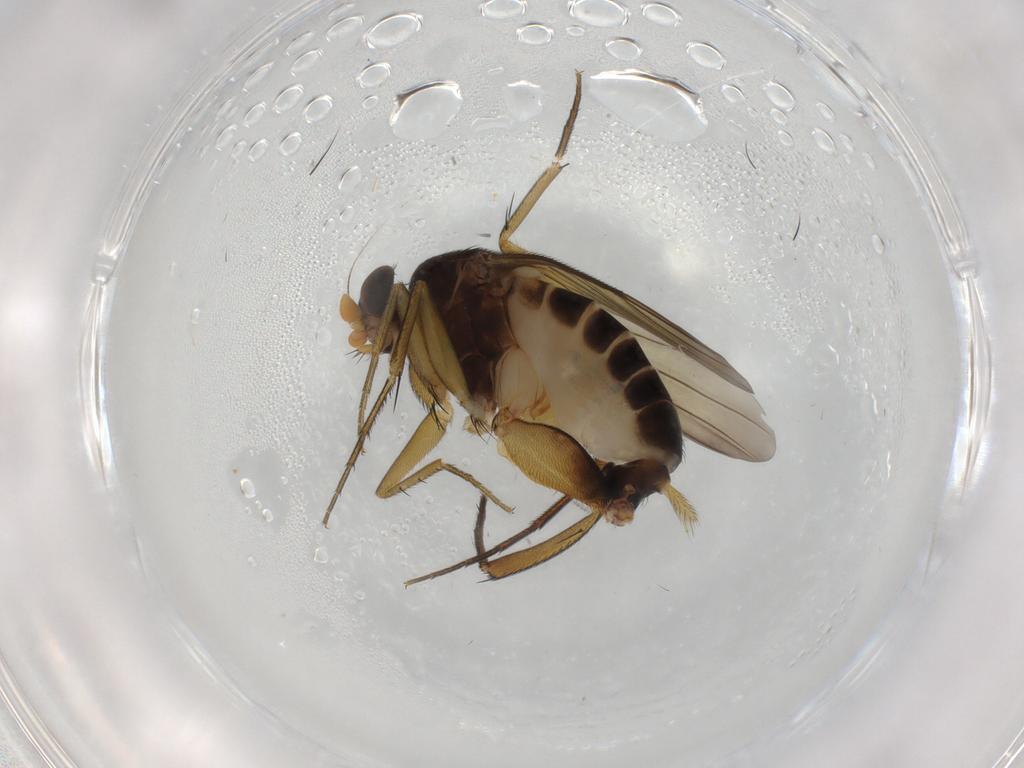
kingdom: Animalia
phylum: Arthropoda
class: Insecta
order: Diptera
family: Phoridae
